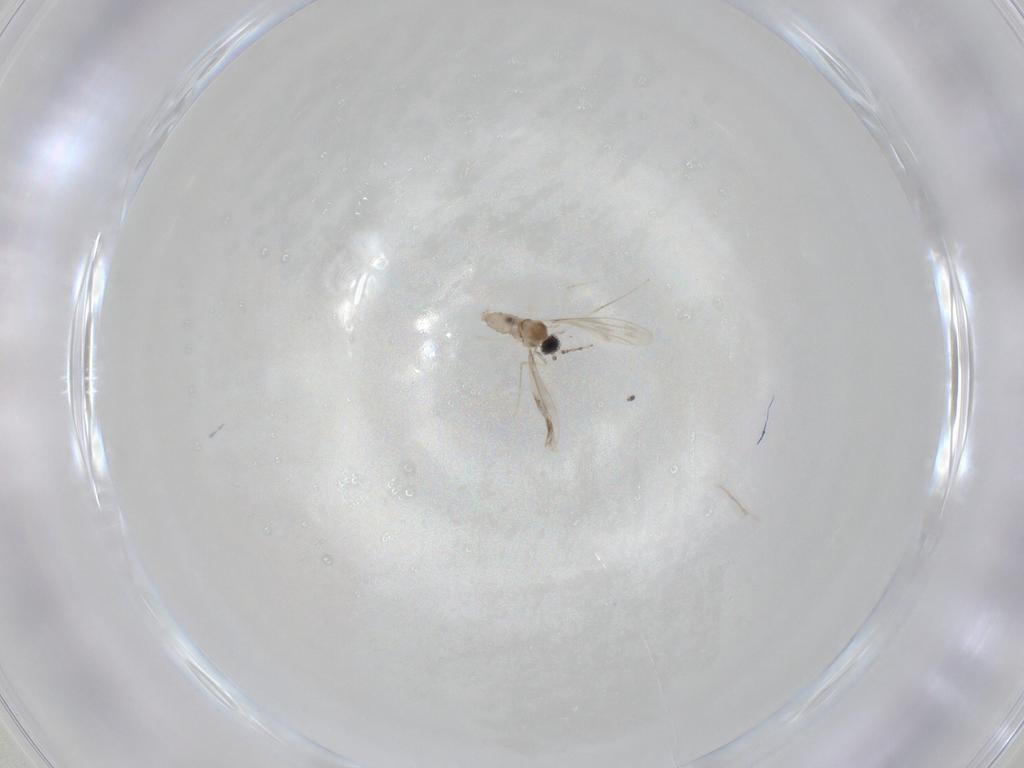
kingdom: Animalia
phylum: Arthropoda
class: Insecta
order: Diptera
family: Cecidomyiidae
